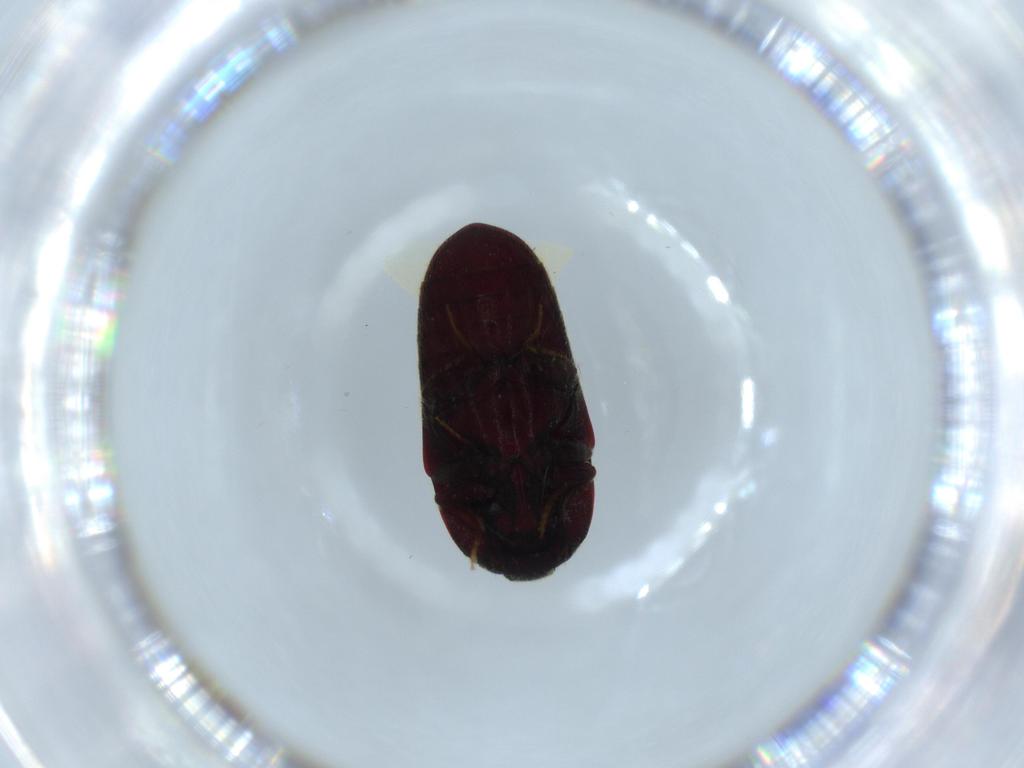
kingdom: Animalia
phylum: Arthropoda
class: Insecta
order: Coleoptera
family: Throscidae
